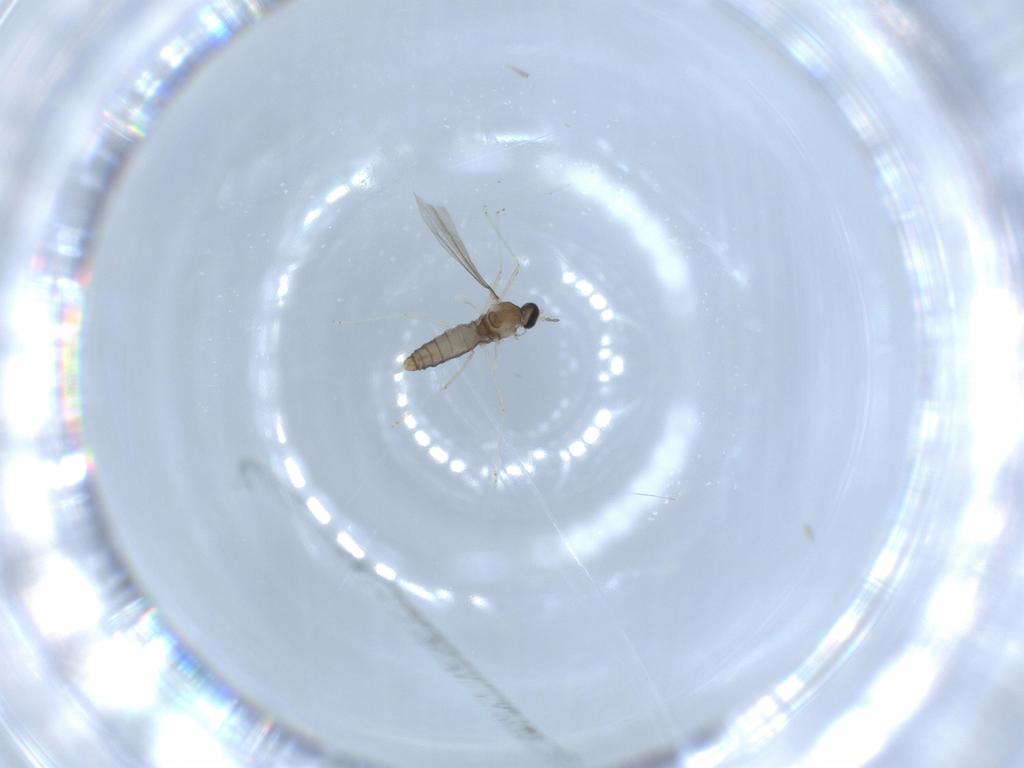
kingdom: Animalia
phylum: Arthropoda
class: Insecta
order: Diptera
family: Cecidomyiidae
